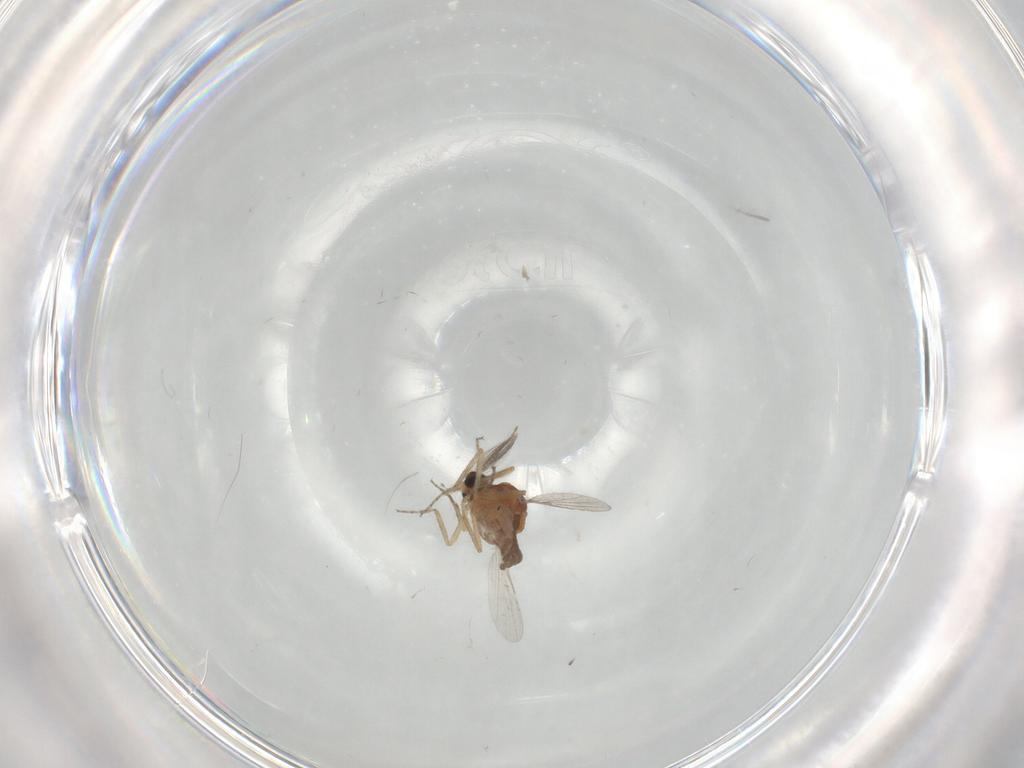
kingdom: Animalia
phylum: Arthropoda
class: Insecta
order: Diptera
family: Ceratopogonidae
